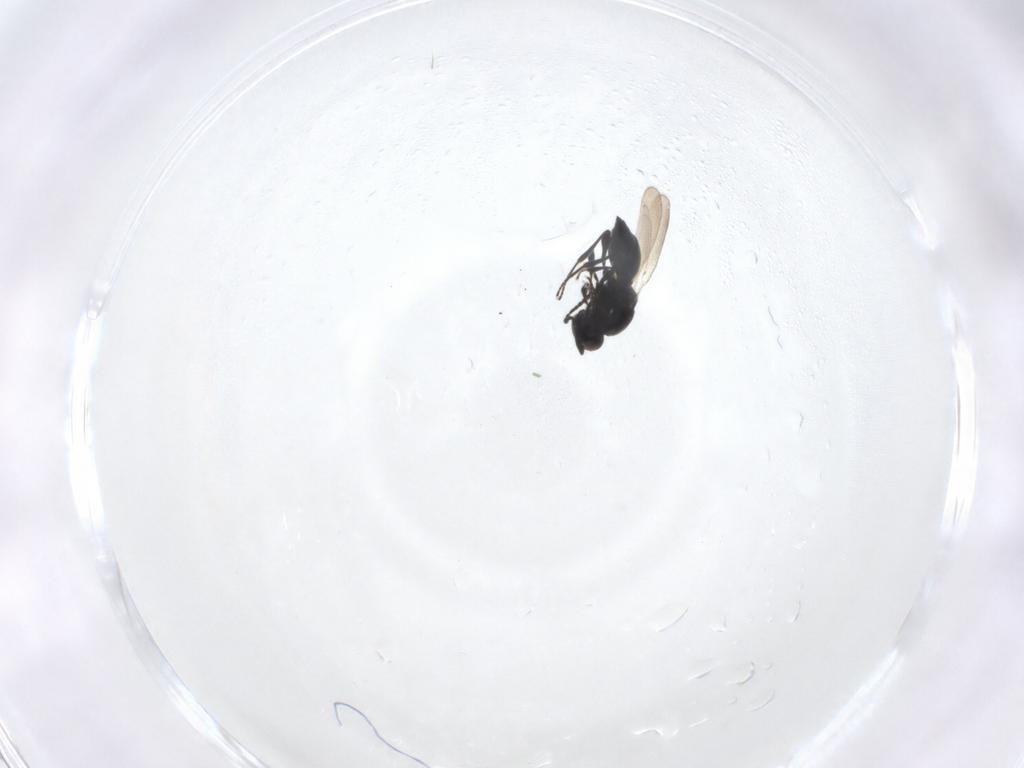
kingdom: Animalia
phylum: Arthropoda
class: Insecta
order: Hymenoptera
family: Platygastridae
